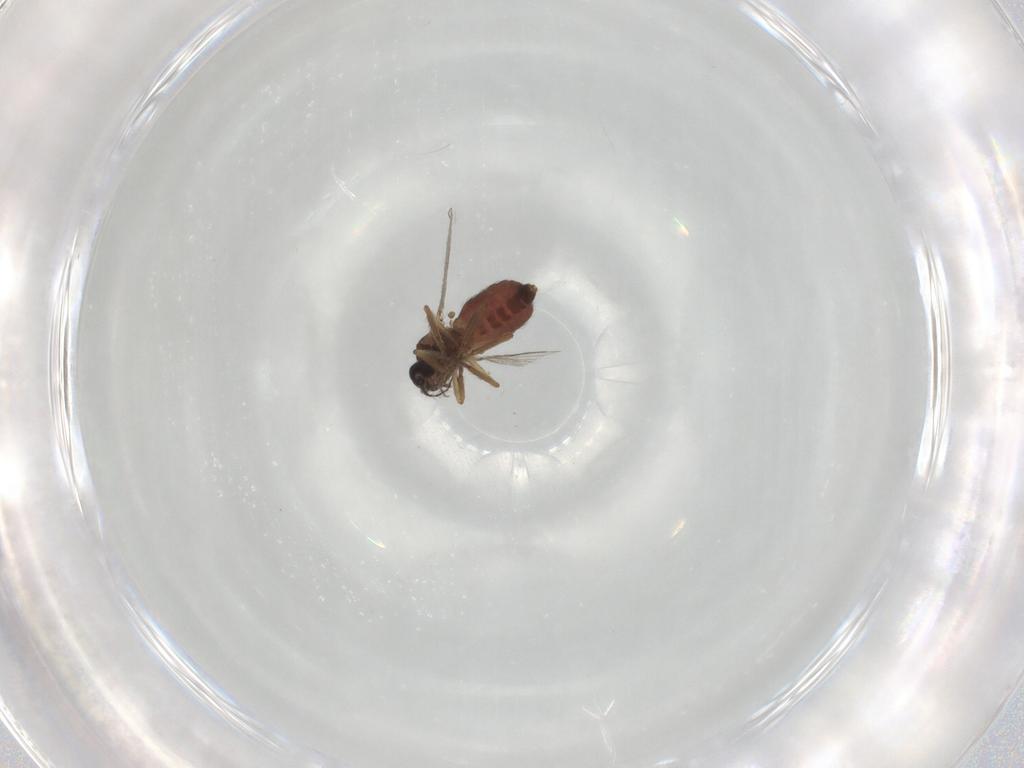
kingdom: Animalia
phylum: Arthropoda
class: Insecta
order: Diptera
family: Ceratopogonidae
